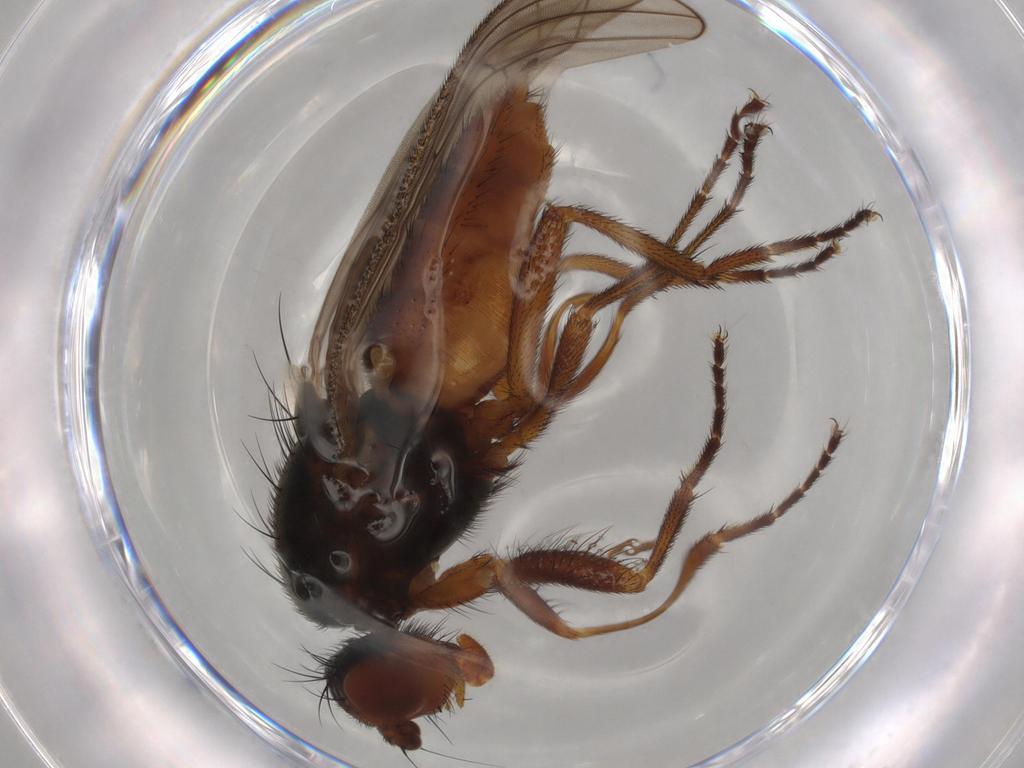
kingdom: Animalia
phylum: Arthropoda
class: Insecta
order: Diptera
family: Heleomyzidae
